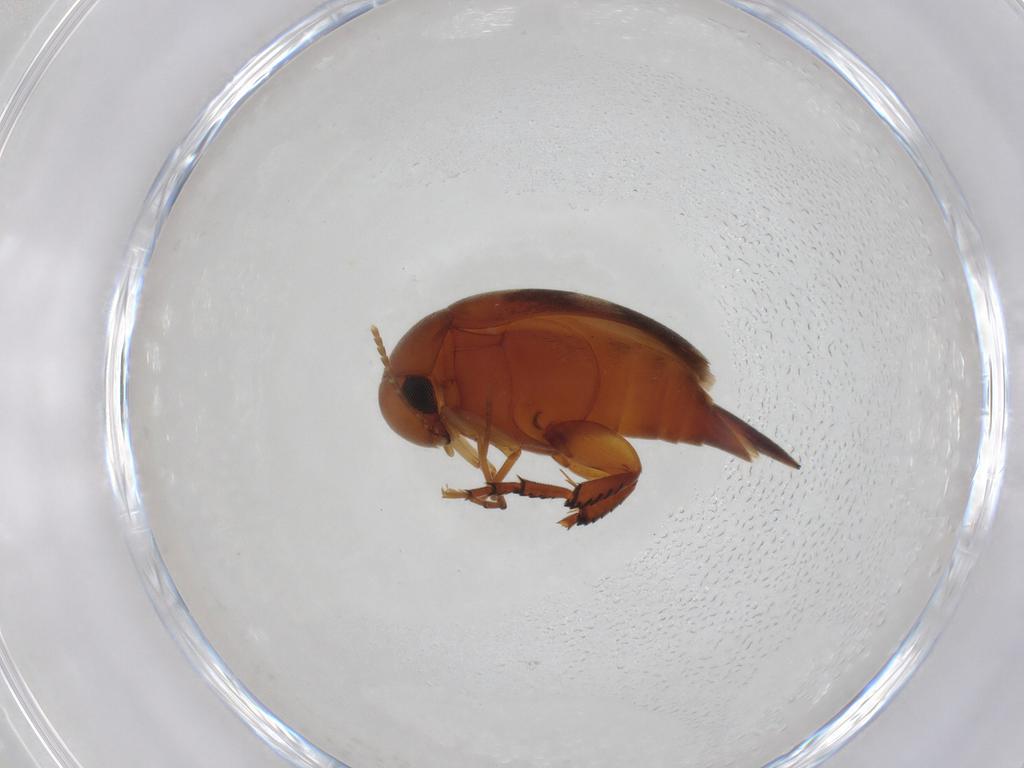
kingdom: Animalia
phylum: Arthropoda
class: Insecta
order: Coleoptera
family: Mordellidae
